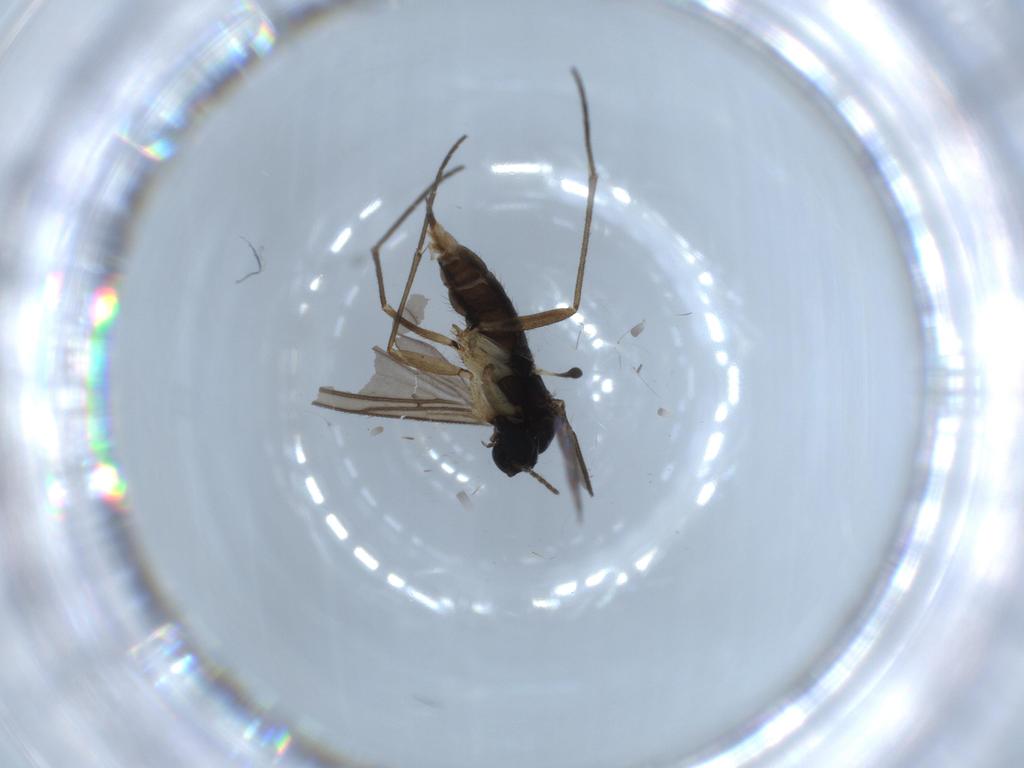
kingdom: Animalia
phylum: Arthropoda
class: Insecta
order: Diptera
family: Sciaridae
